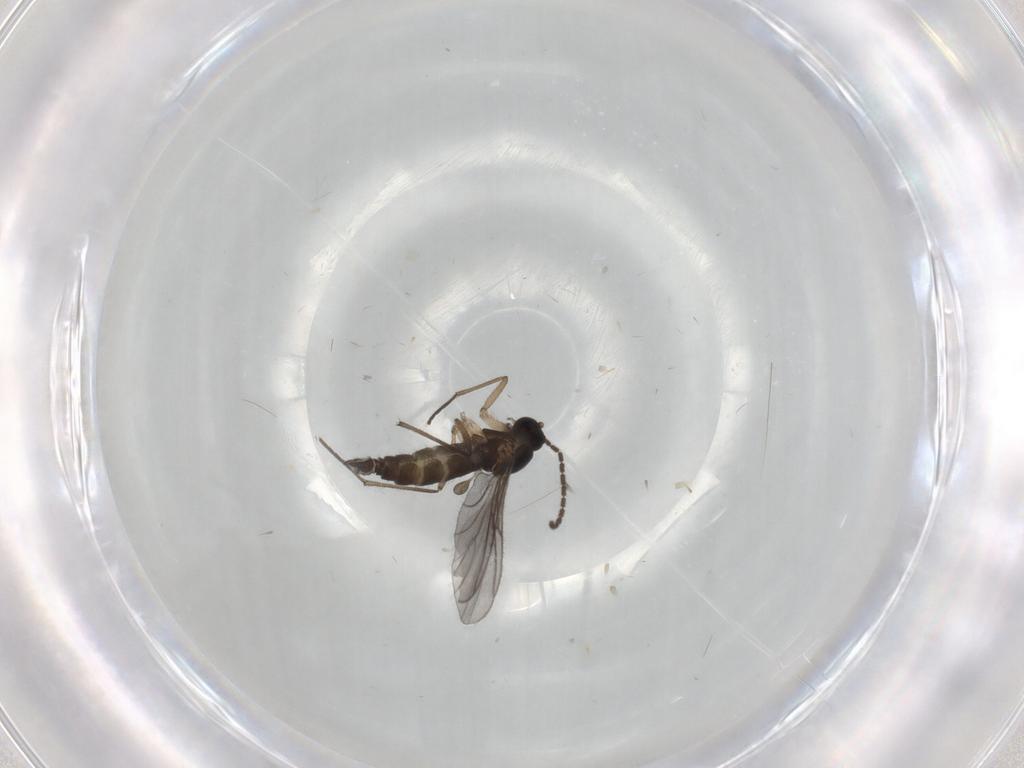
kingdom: Animalia
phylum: Arthropoda
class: Insecta
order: Diptera
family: Sciaridae
